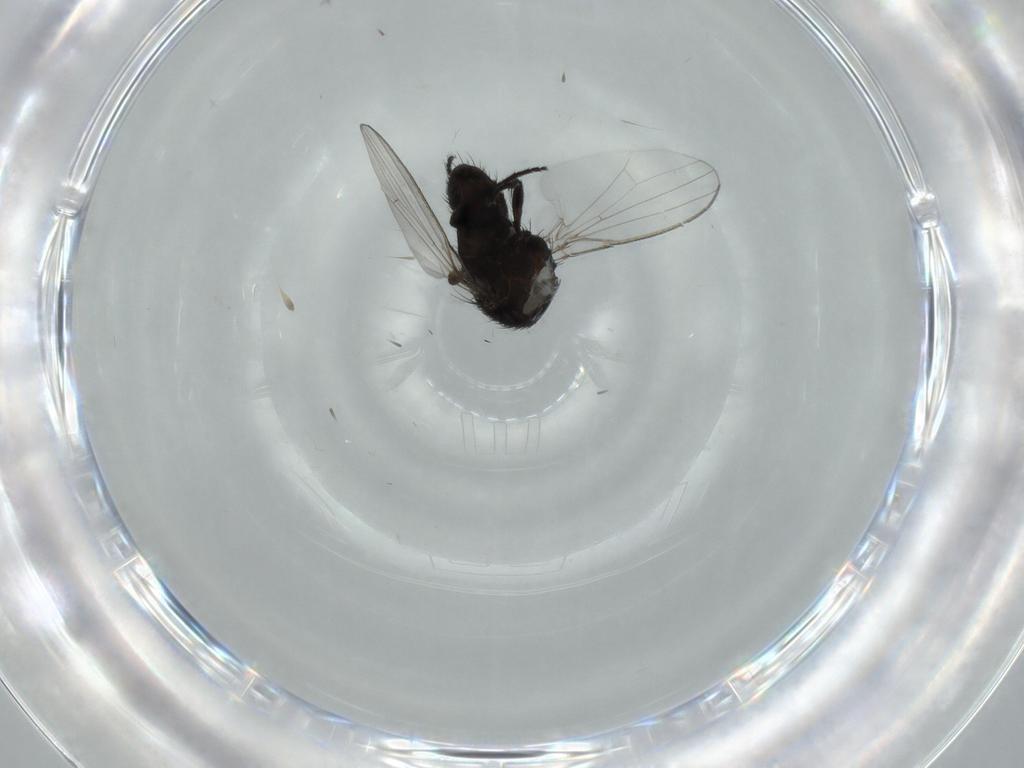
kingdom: Animalia
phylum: Arthropoda
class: Insecta
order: Diptera
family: Milichiidae
